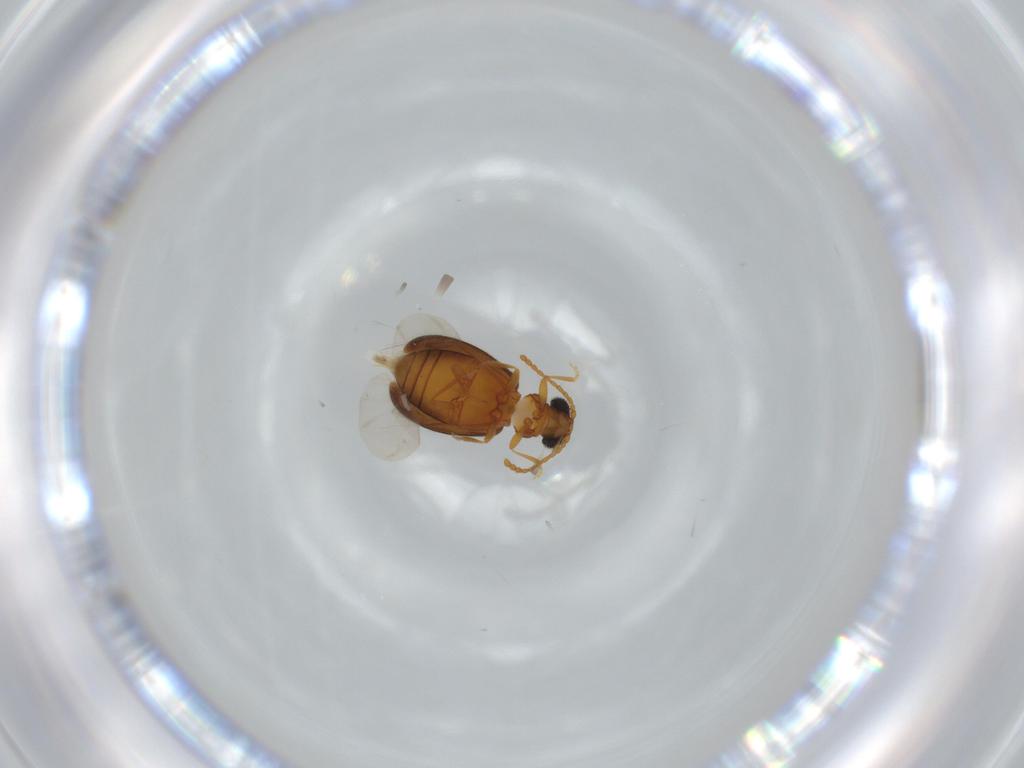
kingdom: Animalia
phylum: Arthropoda
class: Insecta
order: Coleoptera
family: Aderidae
